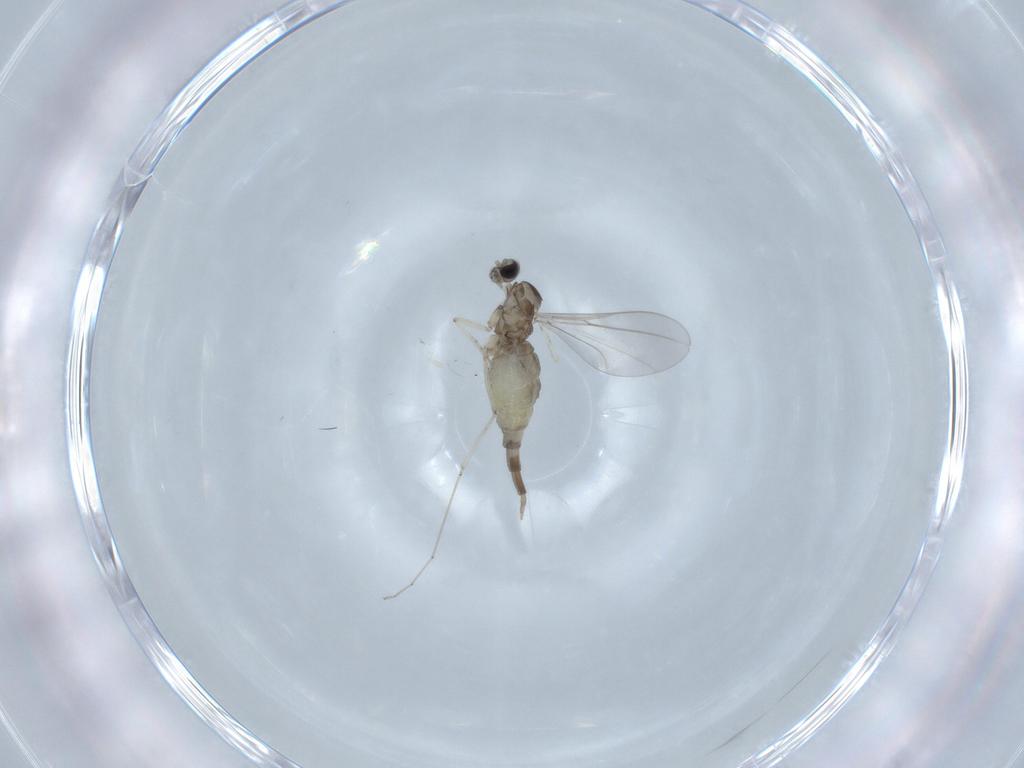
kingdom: Animalia
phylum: Arthropoda
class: Insecta
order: Diptera
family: Cecidomyiidae
